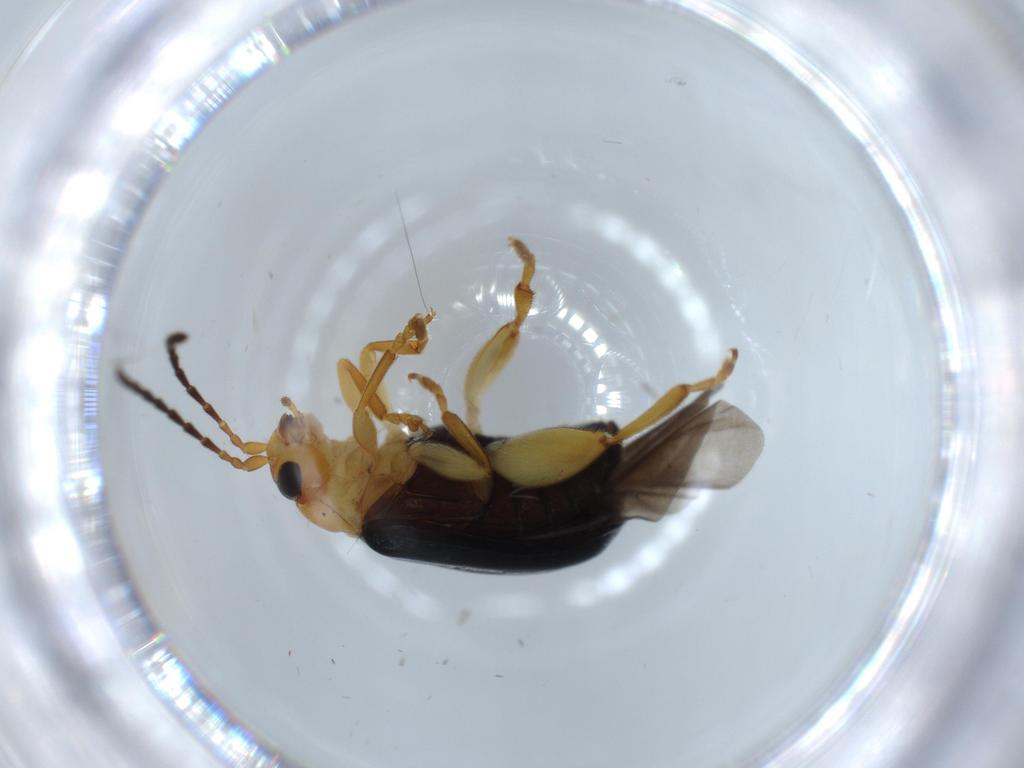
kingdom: Animalia
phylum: Arthropoda
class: Insecta
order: Coleoptera
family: Chrysomelidae
